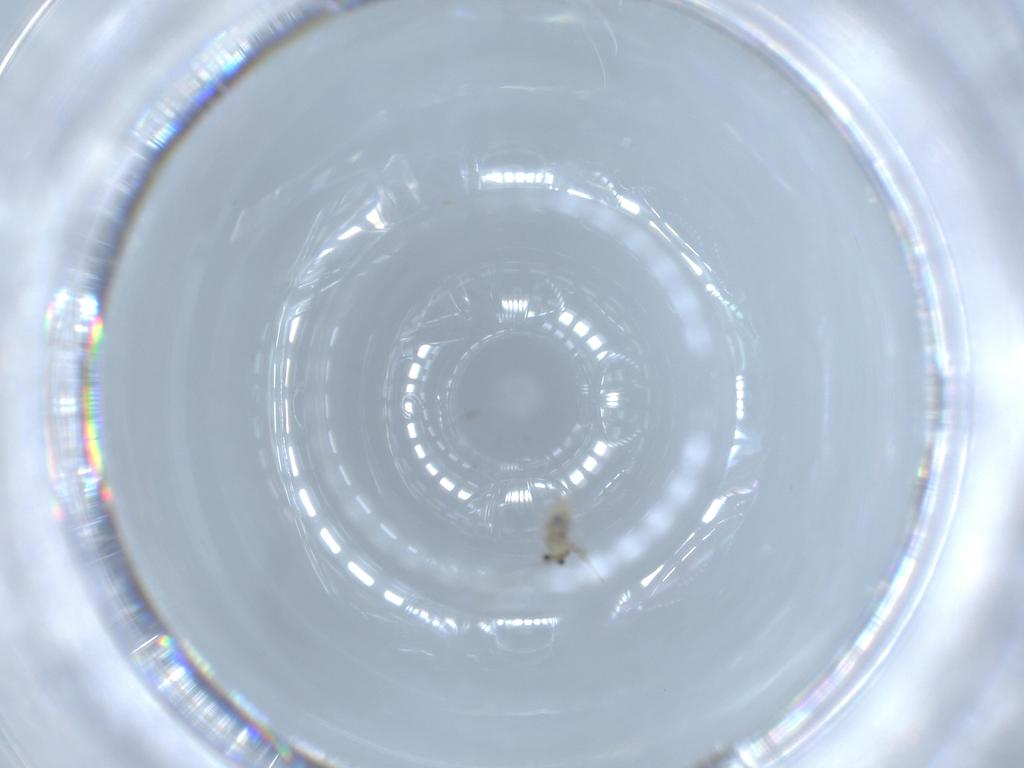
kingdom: Animalia
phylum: Arthropoda
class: Insecta
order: Diptera
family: Cecidomyiidae
